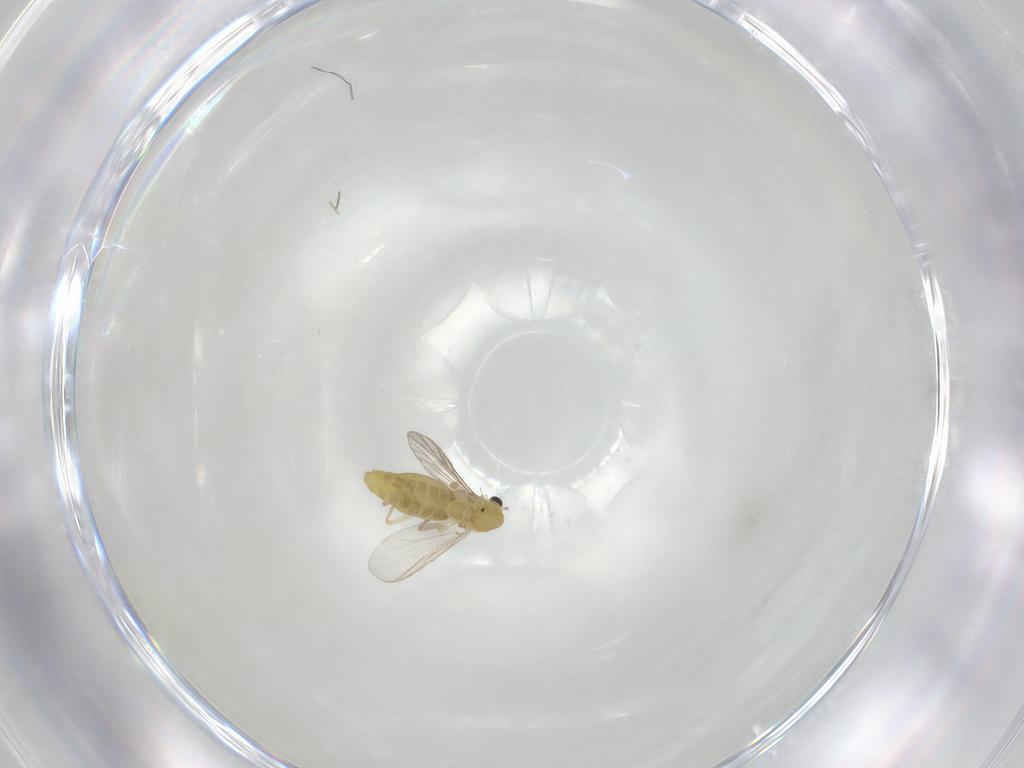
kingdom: Animalia
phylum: Arthropoda
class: Insecta
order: Diptera
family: Chironomidae
